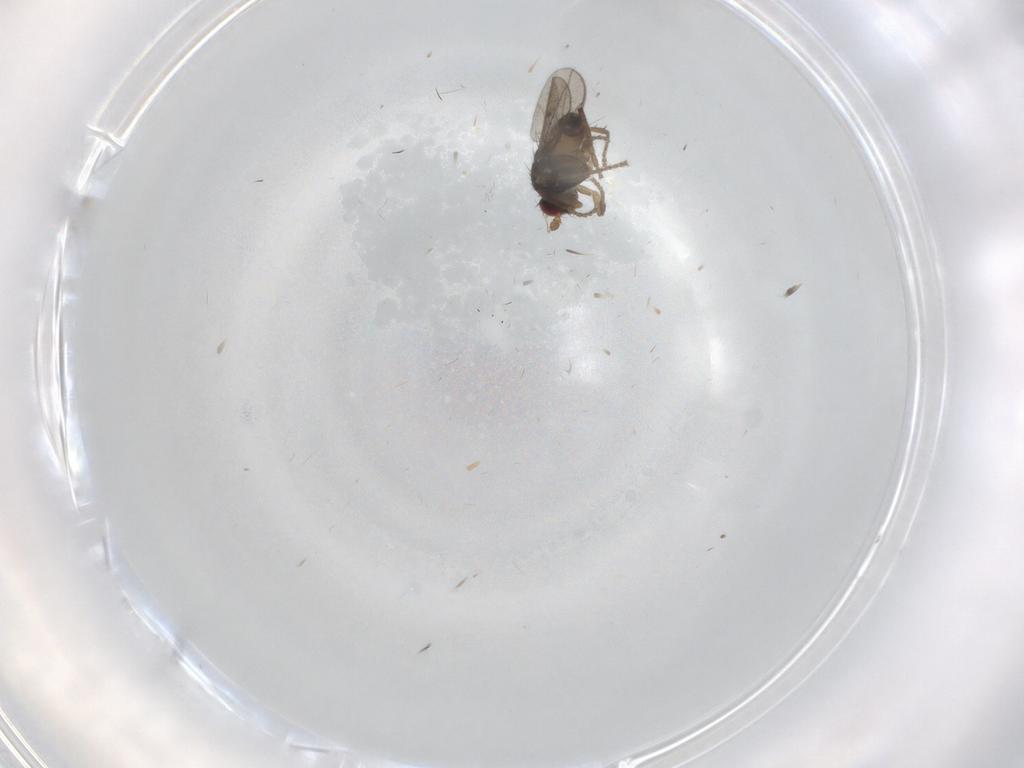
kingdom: Animalia
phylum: Arthropoda
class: Insecta
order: Diptera
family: Sphaeroceridae
